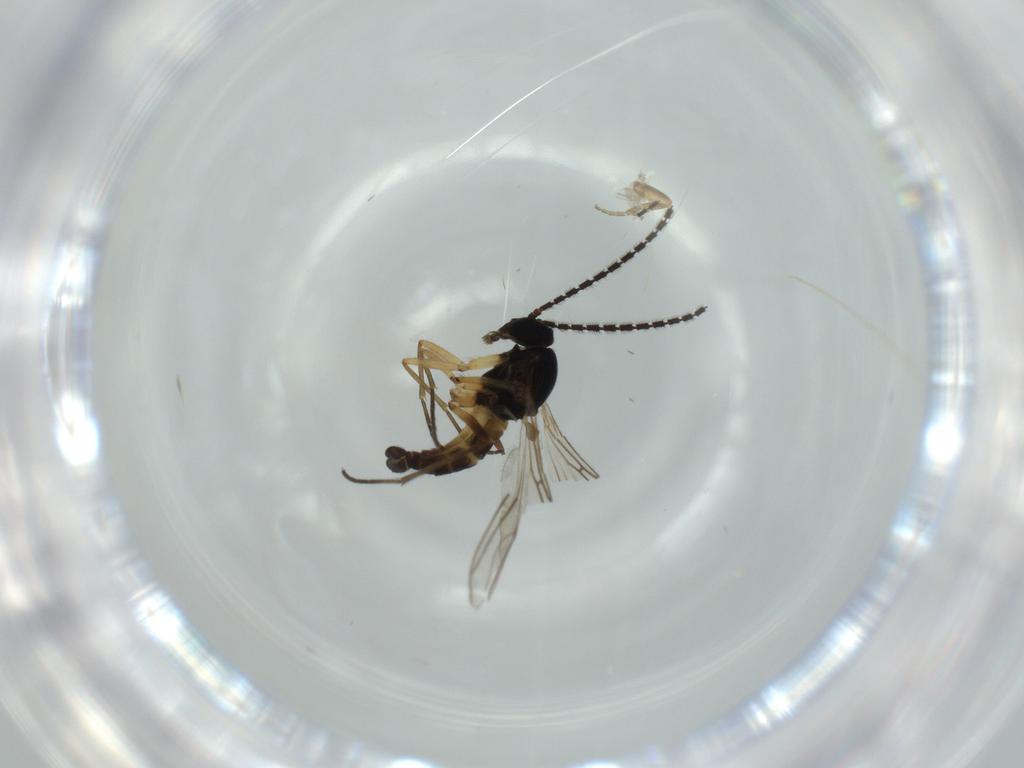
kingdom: Animalia
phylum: Arthropoda
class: Insecta
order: Diptera
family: Sciaridae
